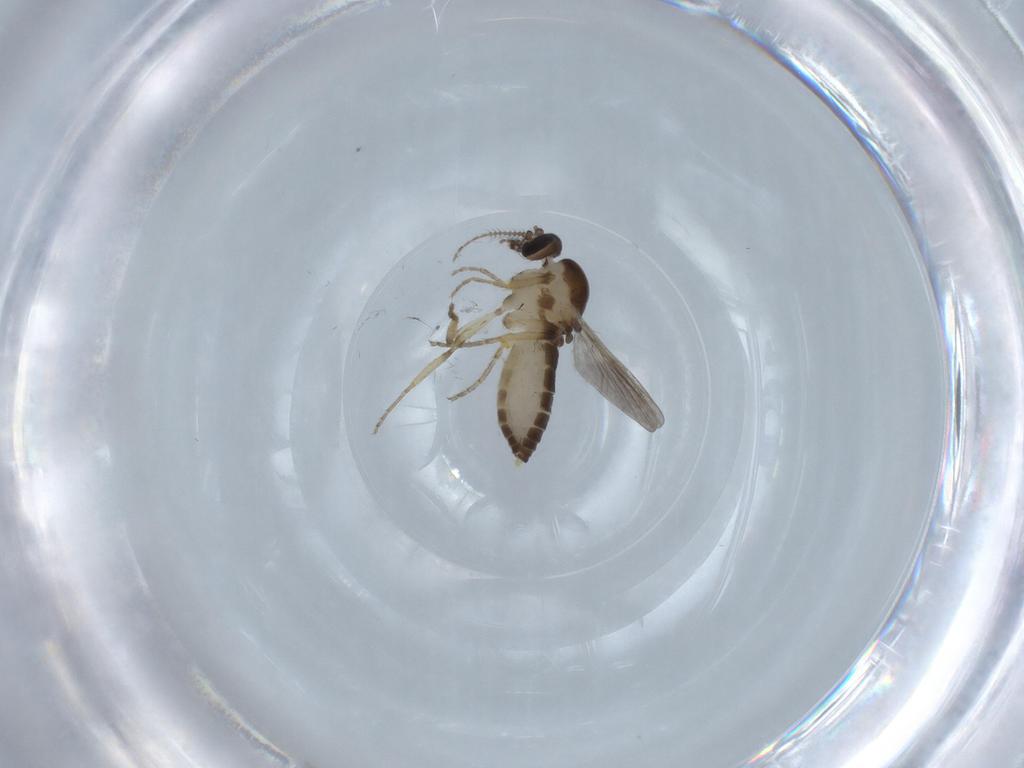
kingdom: Animalia
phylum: Arthropoda
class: Insecta
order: Diptera
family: Ceratopogonidae
